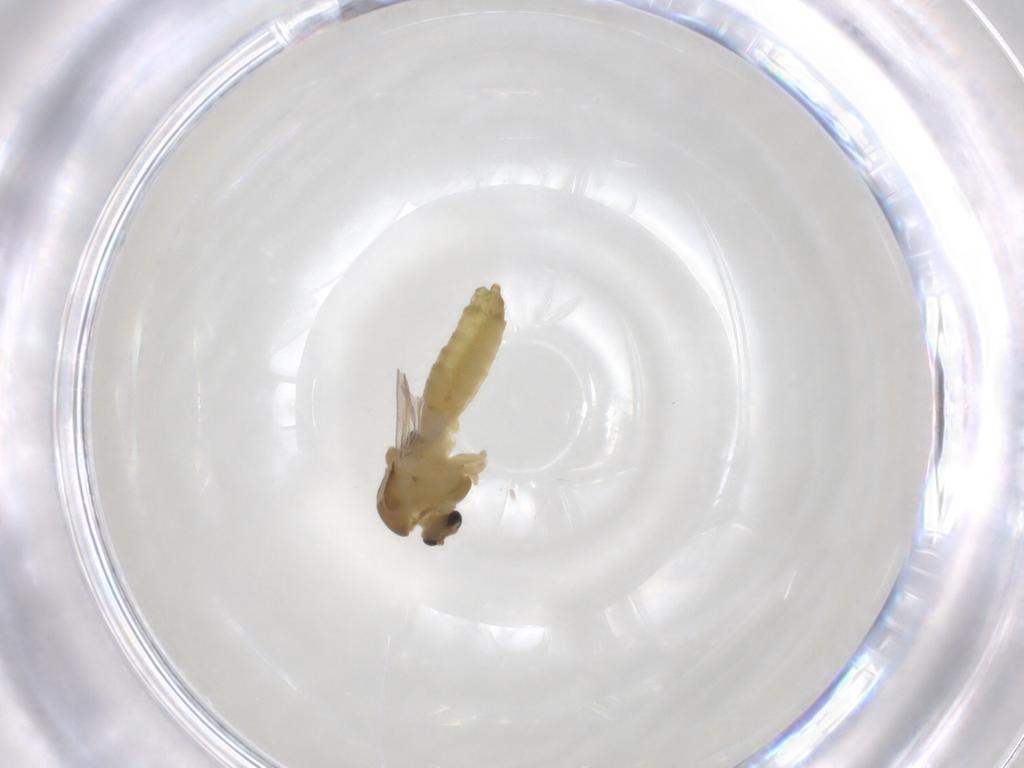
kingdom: Animalia
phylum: Arthropoda
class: Insecta
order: Diptera
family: Chironomidae
